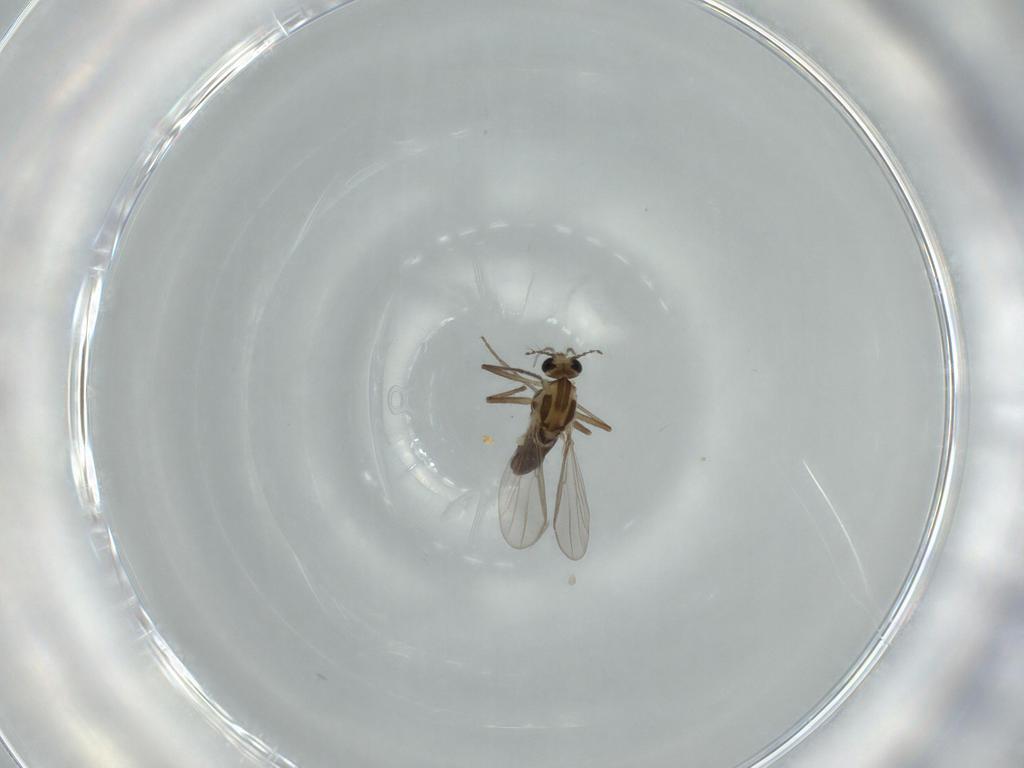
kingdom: Animalia
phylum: Arthropoda
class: Insecta
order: Diptera
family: Chironomidae
